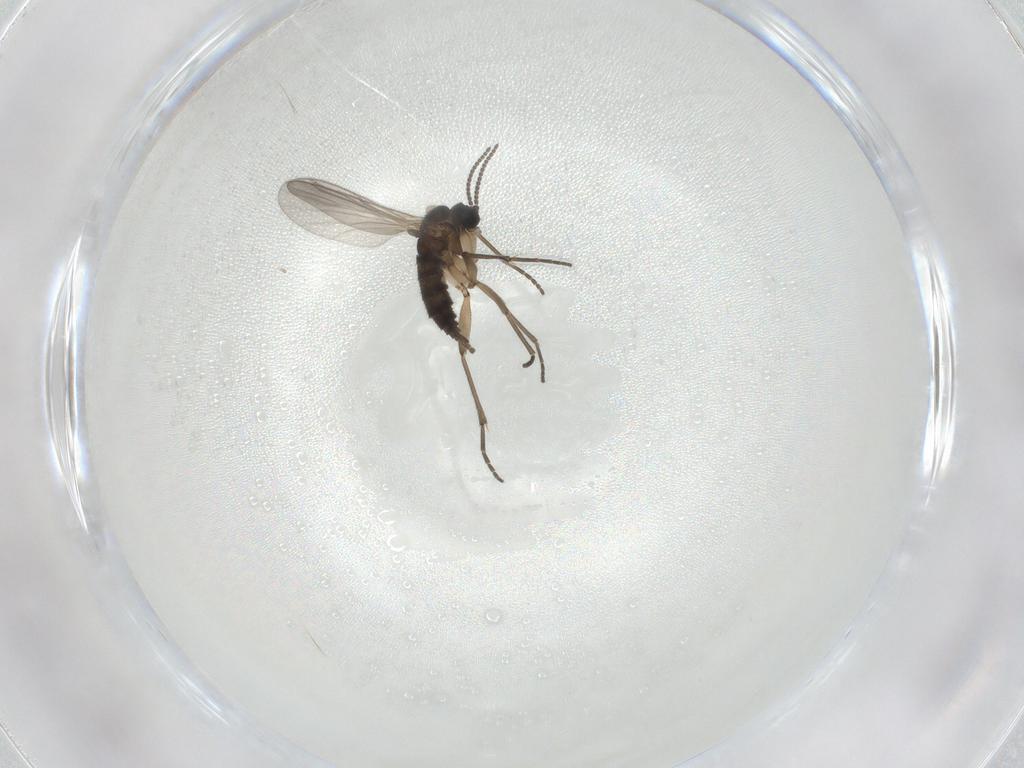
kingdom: Animalia
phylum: Arthropoda
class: Insecta
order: Diptera
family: Sciaridae
